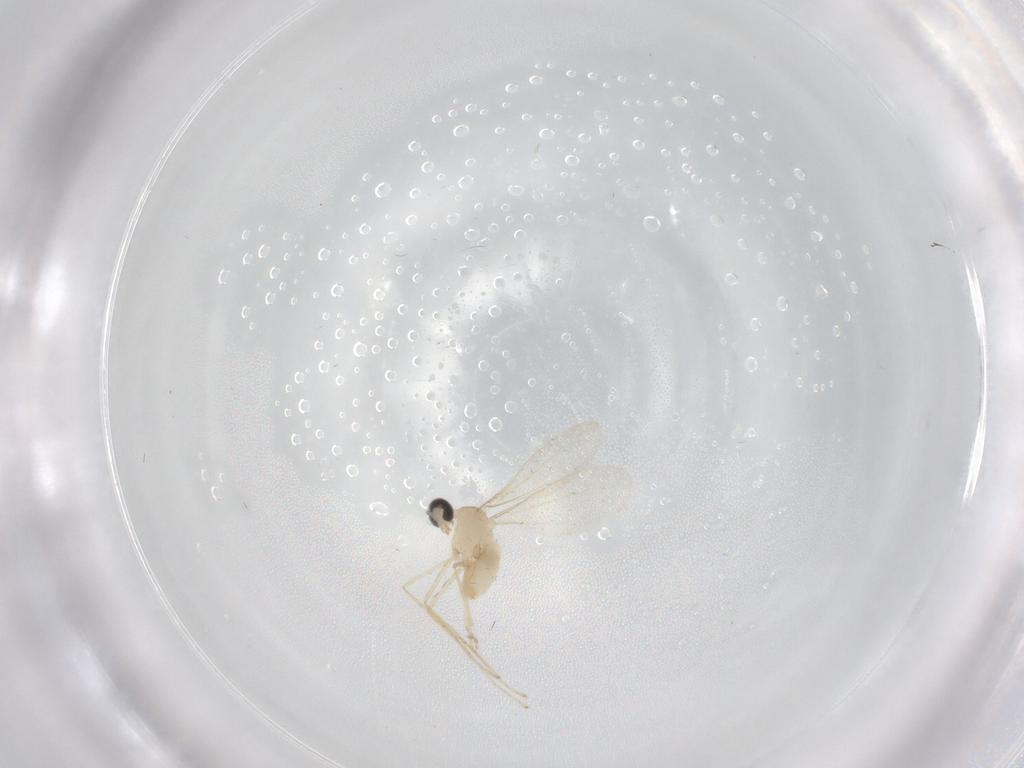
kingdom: Animalia
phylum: Arthropoda
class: Insecta
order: Diptera
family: Cecidomyiidae
